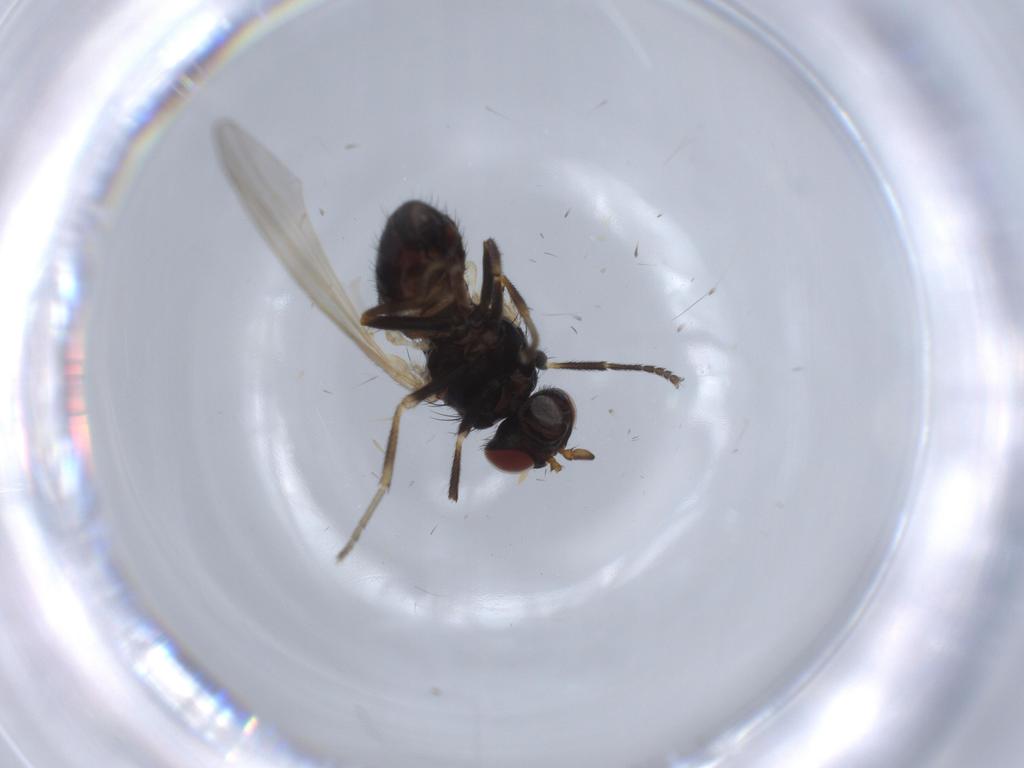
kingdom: Animalia
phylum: Arthropoda
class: Insecta
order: Diptera
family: Lauxaniidae
